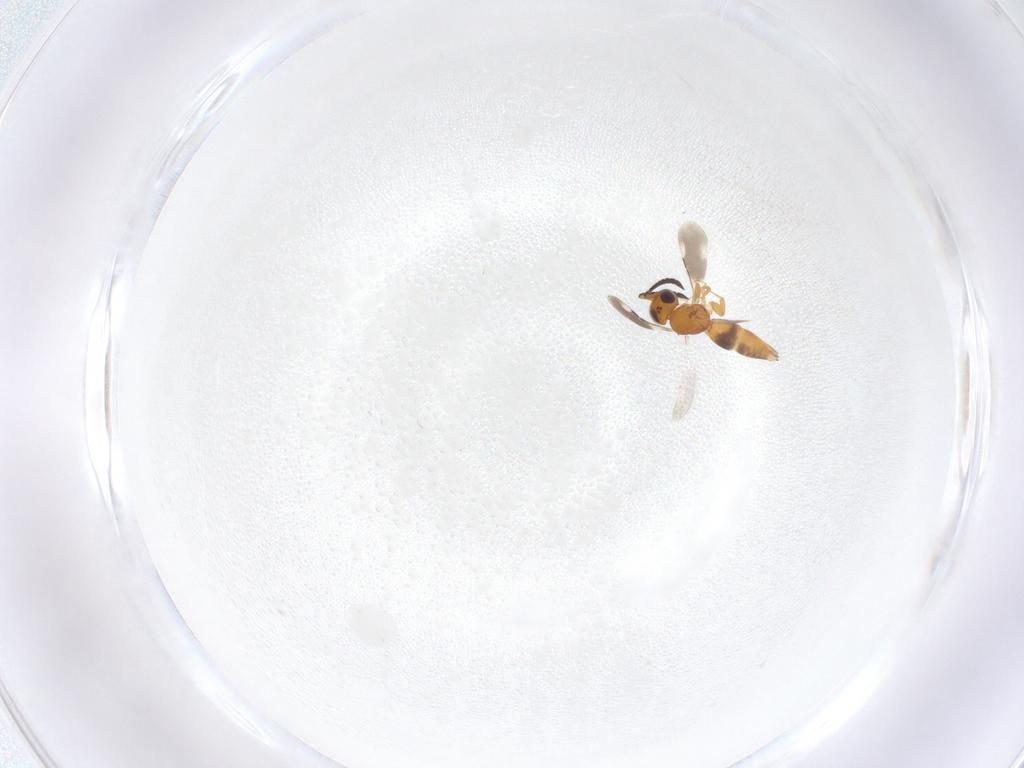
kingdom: Animalia
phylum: Arthropoda
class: Insecta
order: Hymenoptera
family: Ceraphronidae
